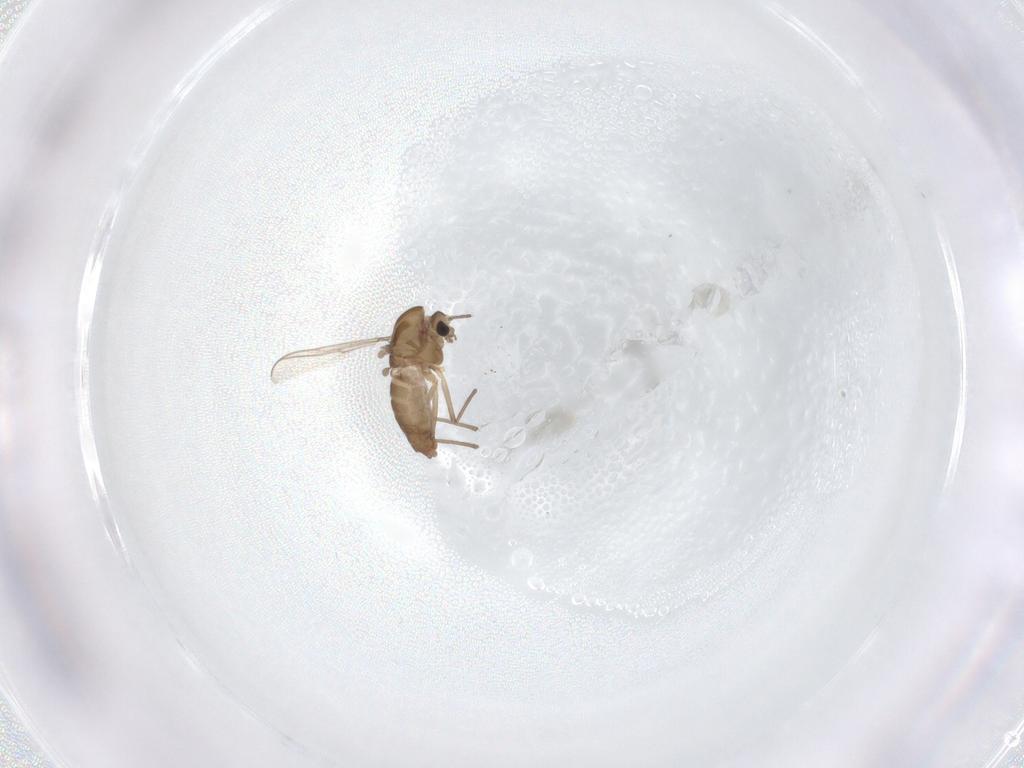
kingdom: Animalia
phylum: Arthropoda
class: Insecta
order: Diptera
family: Chironomidae
